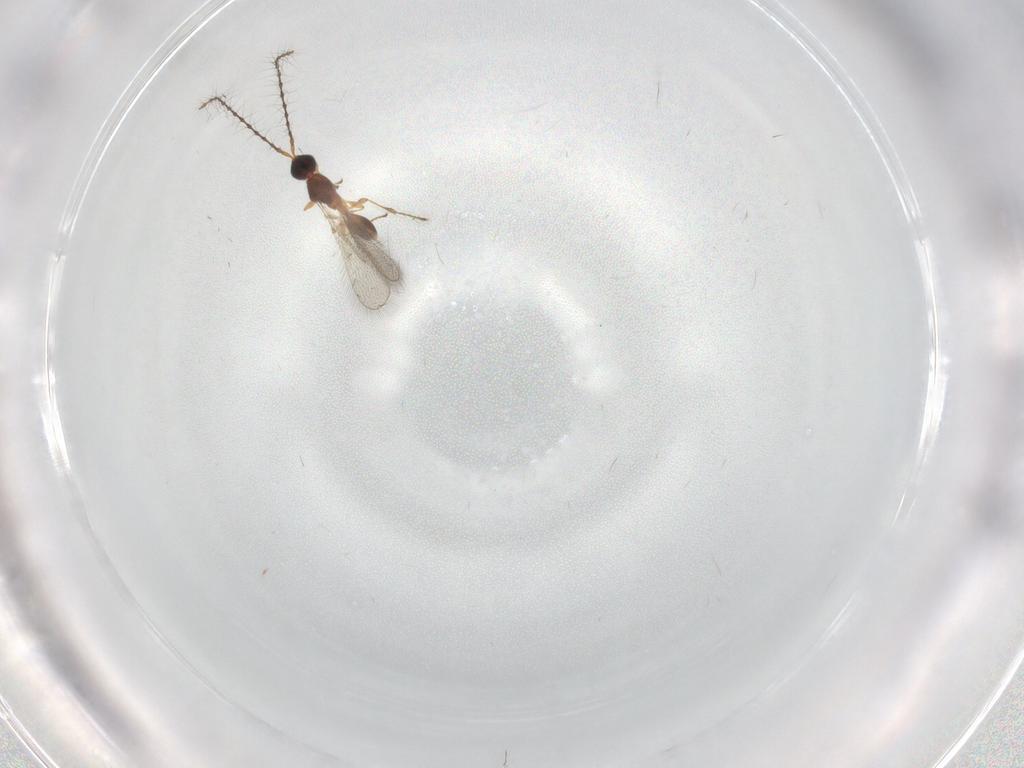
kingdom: Animalia
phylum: Arthropoda
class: Insecta
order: Hymenoptera
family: Diapriidae
